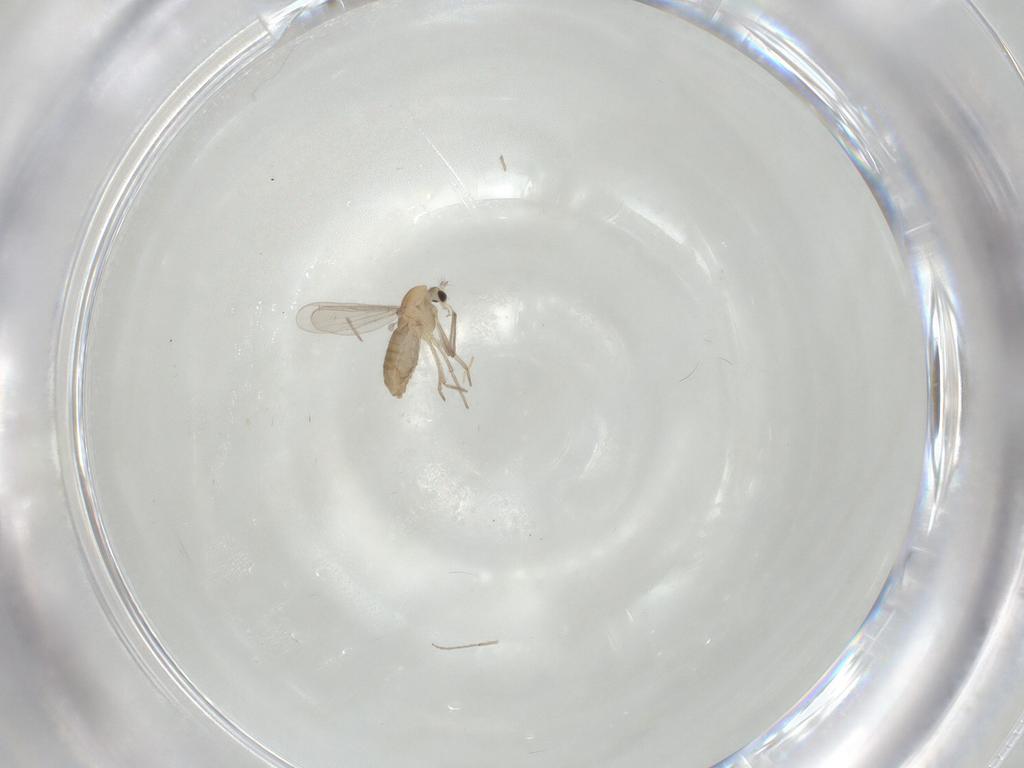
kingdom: Animalia
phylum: Arthropoda
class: Insecta
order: Diptera
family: Chironomidae
